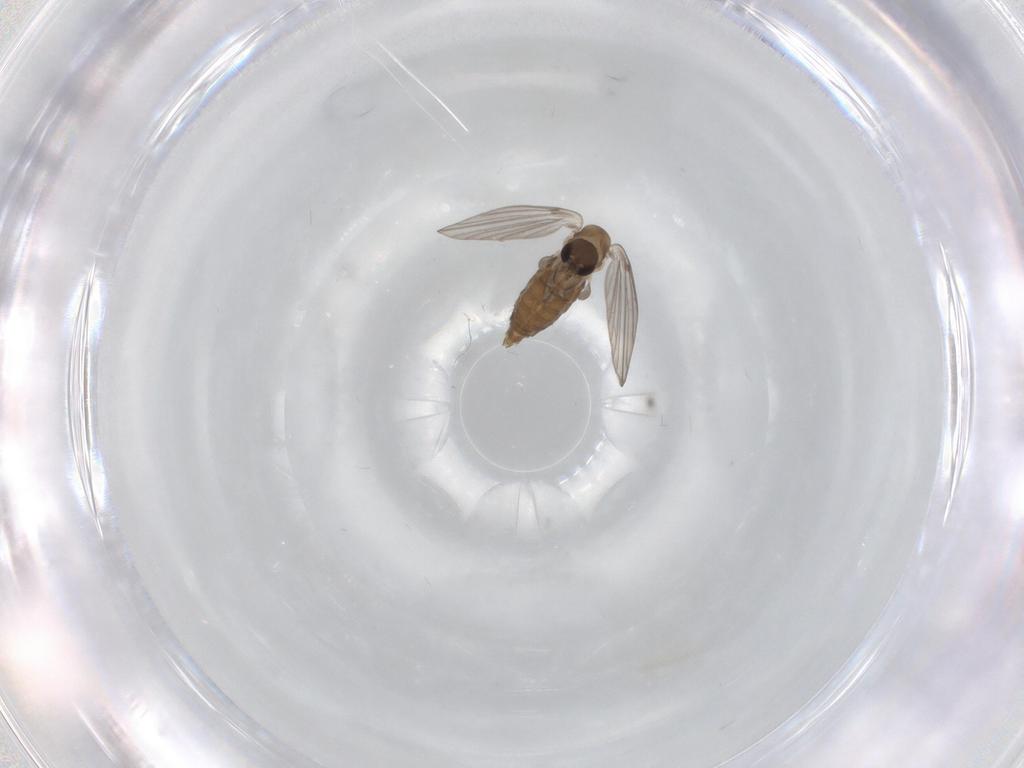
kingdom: Animalia
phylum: Arthropoda
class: Insecta
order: Diptera
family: Psychodidae
